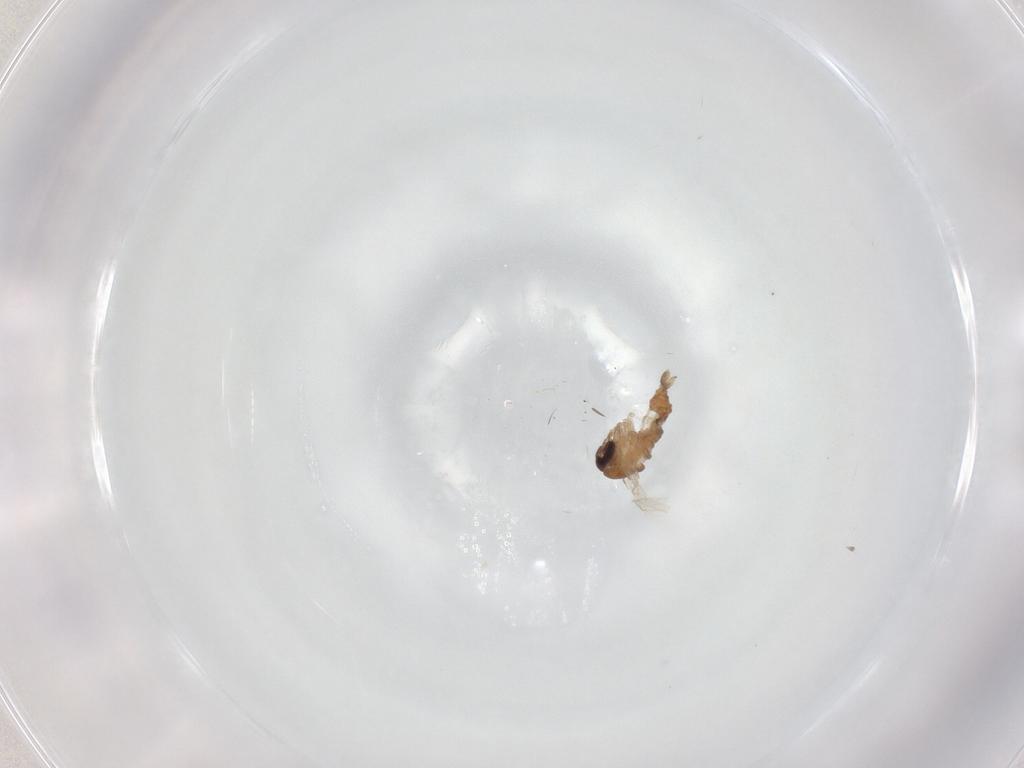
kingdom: Animalia
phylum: Arthropoda
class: Insecta
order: Diptera
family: Psychodidae
